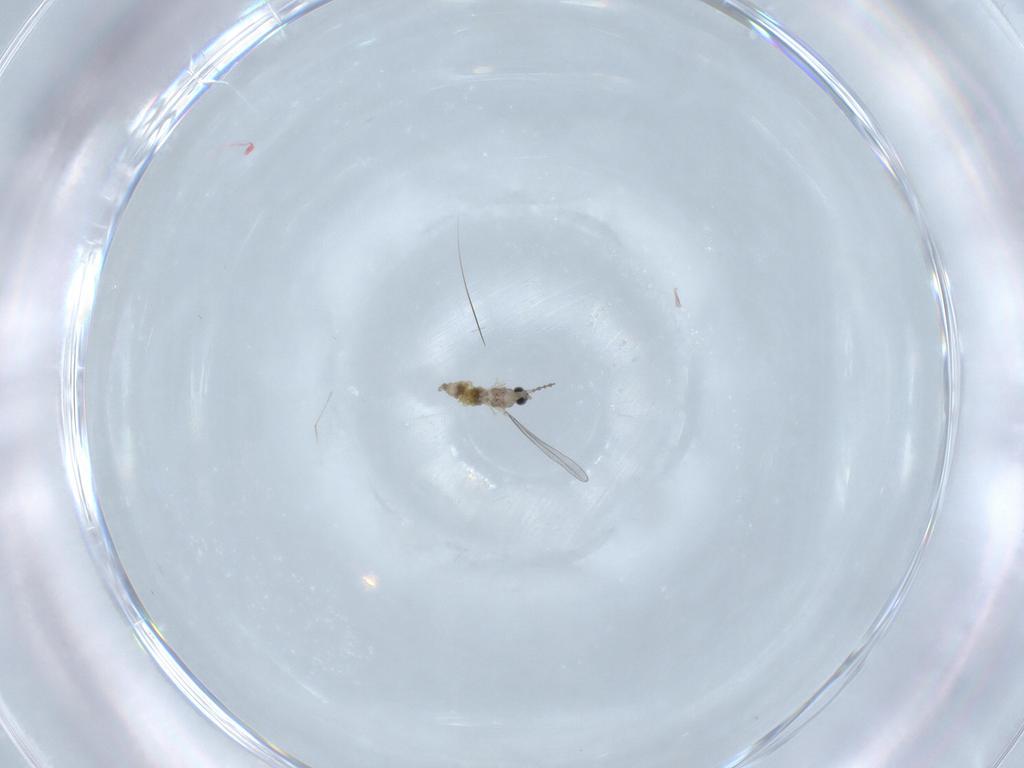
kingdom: Animalia
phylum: Arthropoda
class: Insecta
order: Diptera
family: Cecidomyiidae
